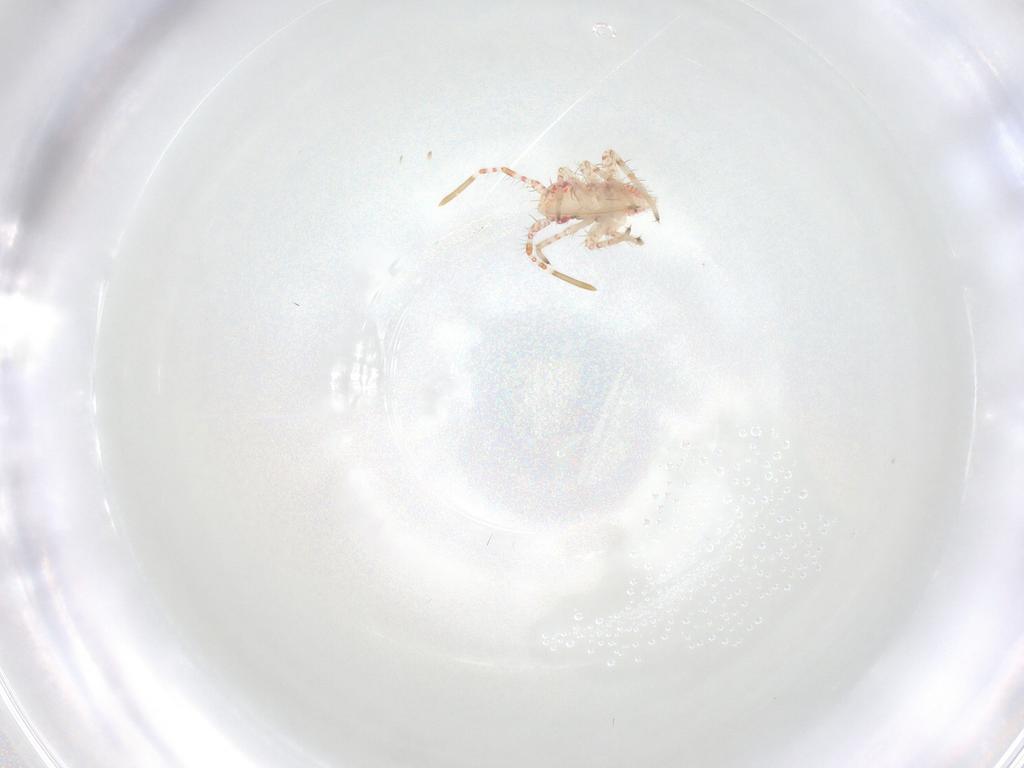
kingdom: Animalia
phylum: Arthropoda
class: Insecta
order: Hemiptera
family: Miridae
